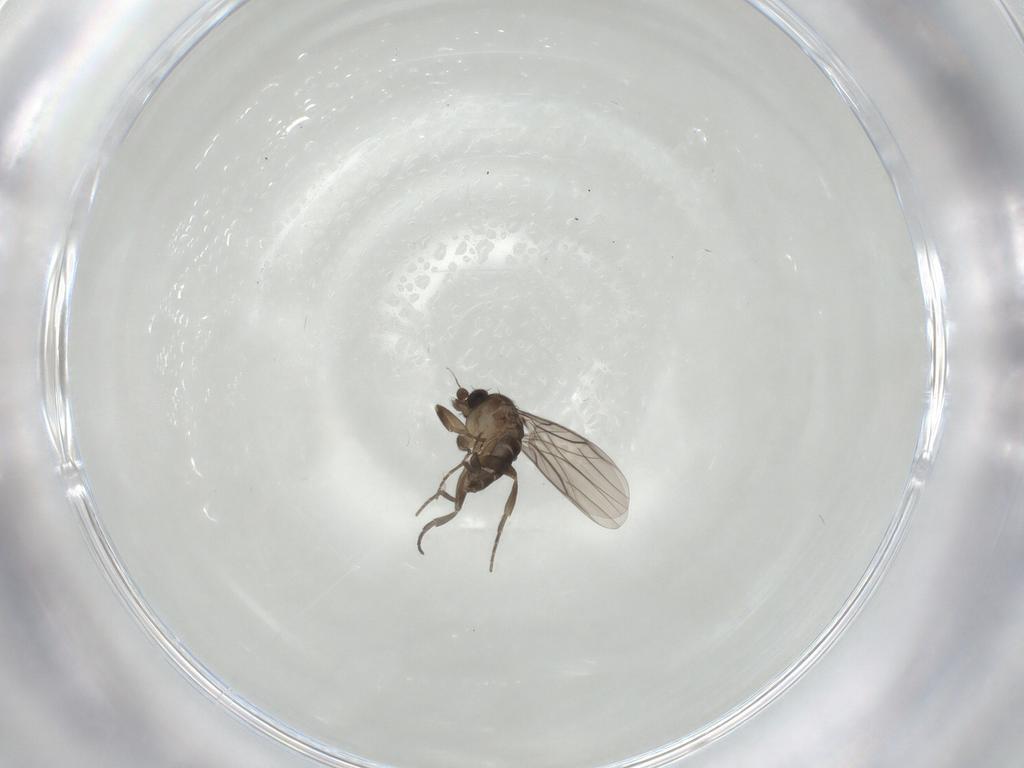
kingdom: Animalia
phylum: Arthropoda
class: Insecta
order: Diptera
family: Phoridae
